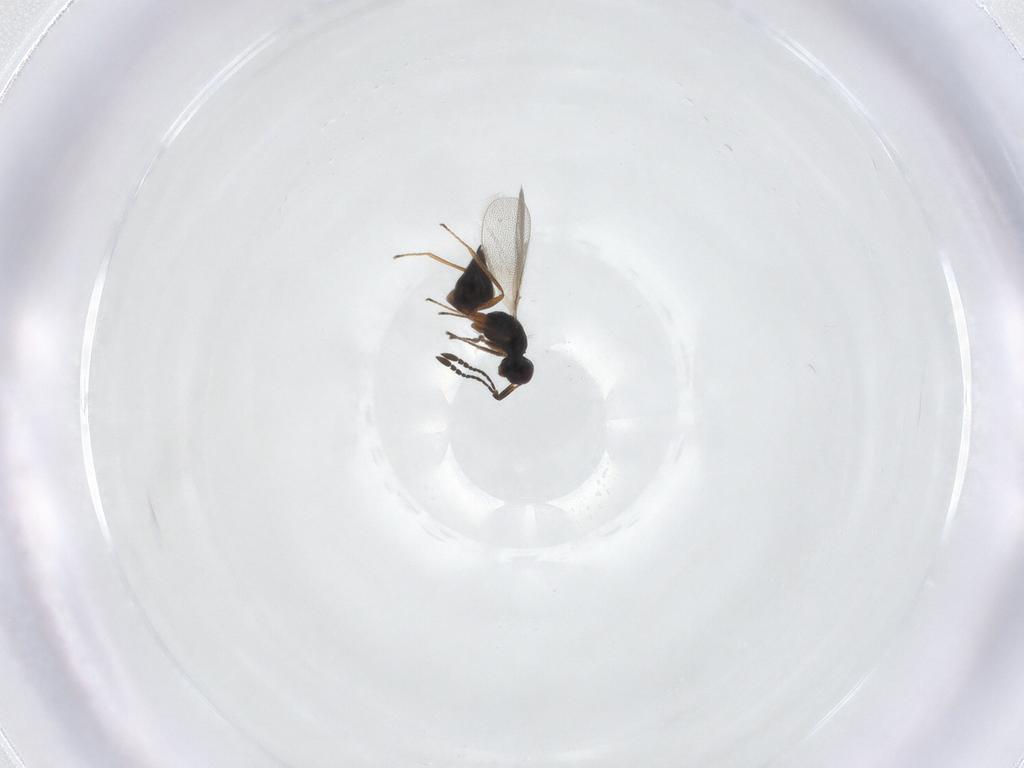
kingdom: Animalia
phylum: Arthropoda
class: Insecta
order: Hymenoptera
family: Mymaridae
